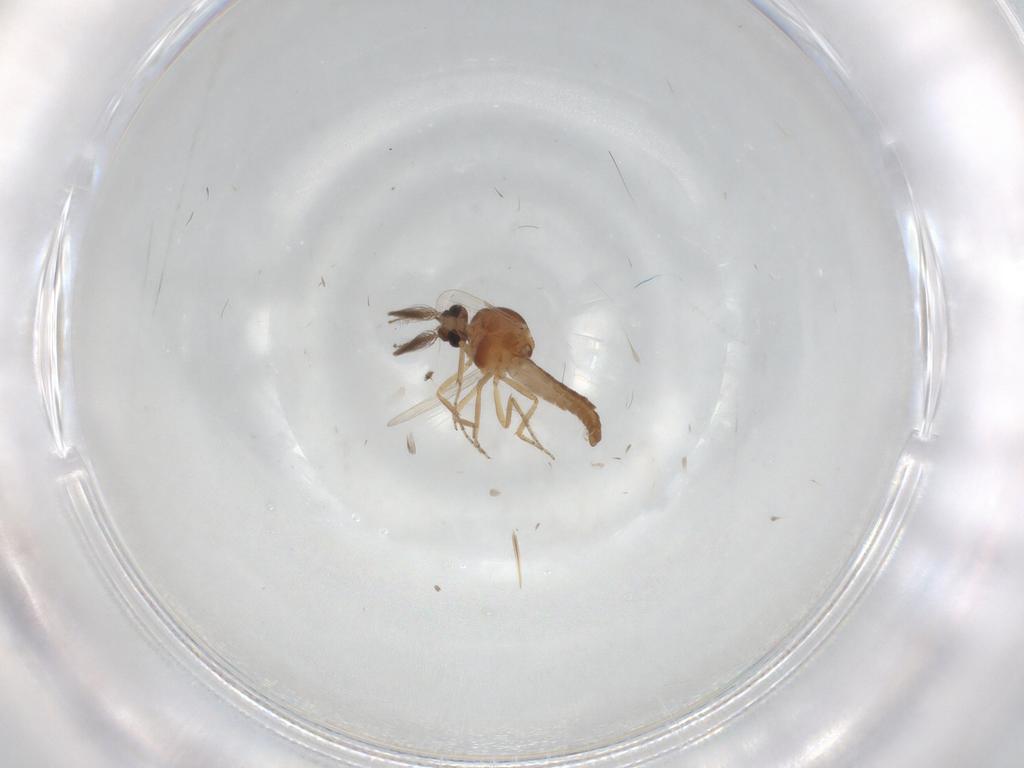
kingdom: Animalia
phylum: Arthropoda
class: Insecta
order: Diptera
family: Ceratopogonidae
